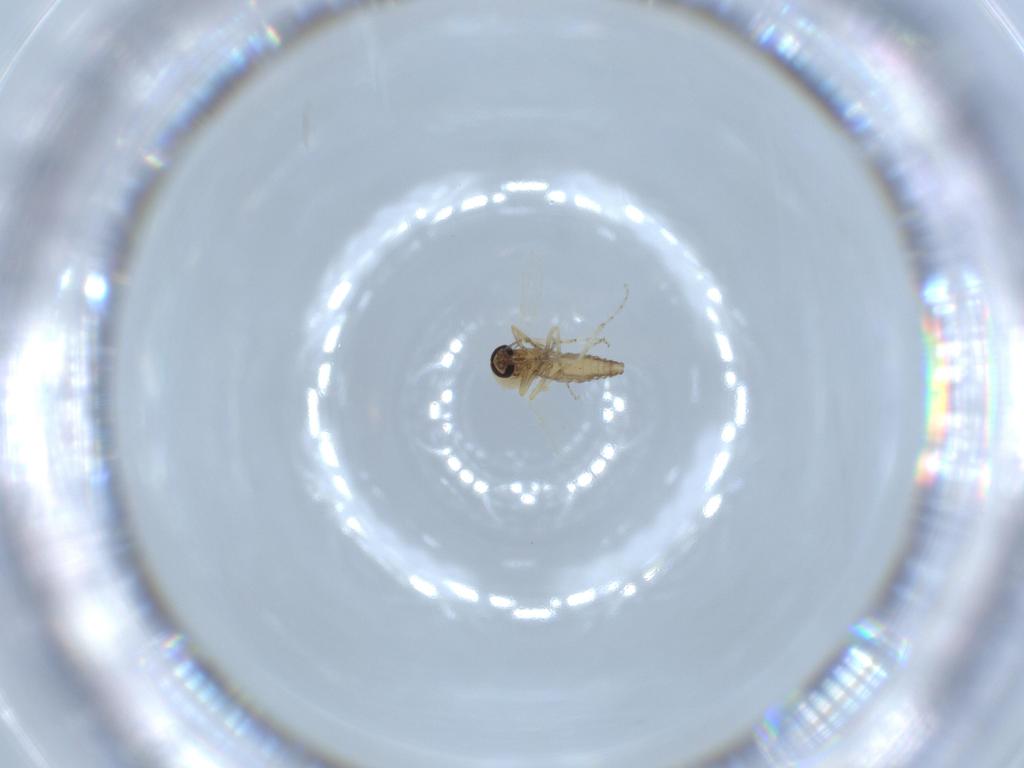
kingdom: Animalia
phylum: Arthropoda
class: Insecta
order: Diptera
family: Ceratopogonidae
